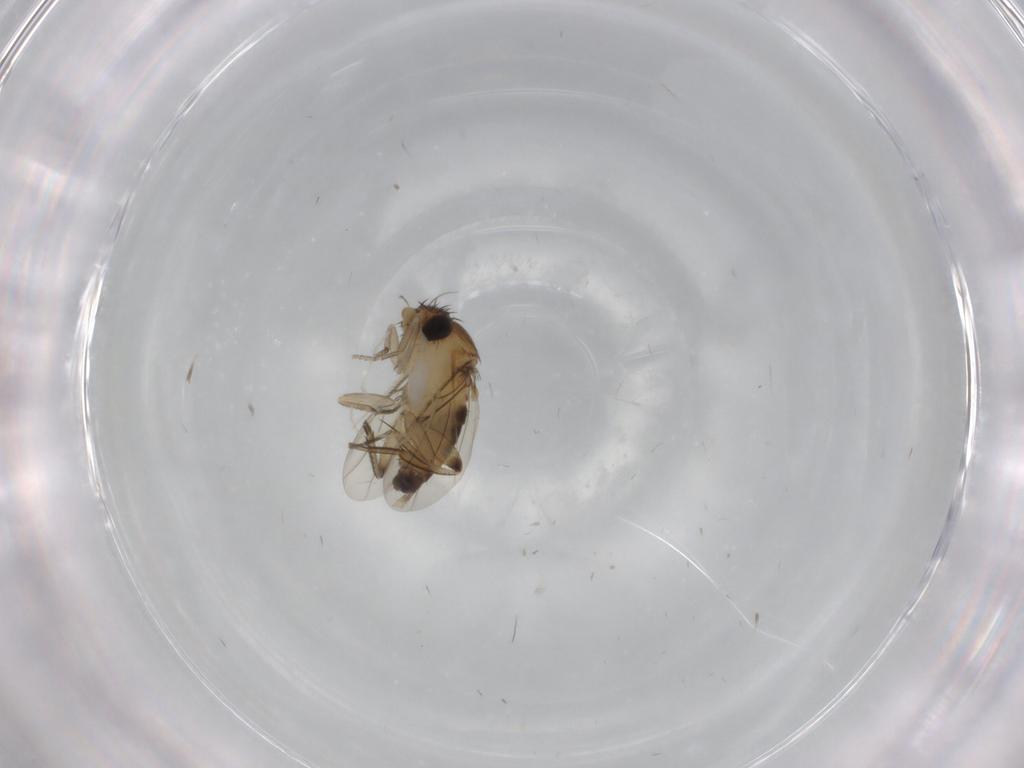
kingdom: Animalia
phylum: Arthropoda
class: Insecta
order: Diptera
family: Phoridae
